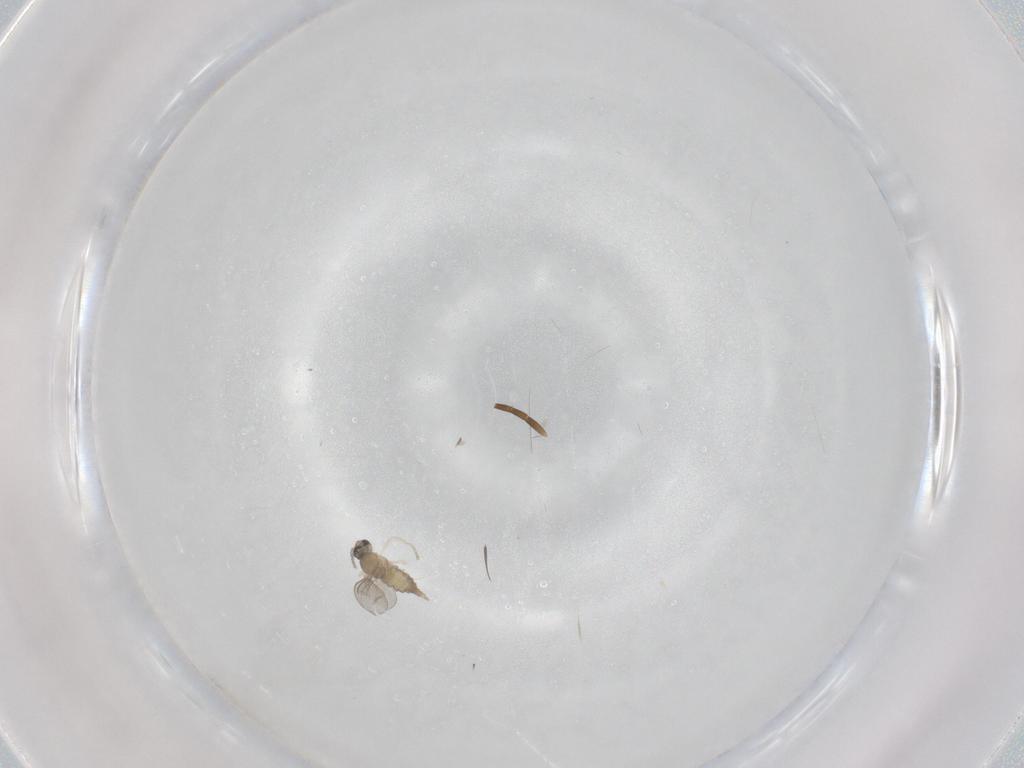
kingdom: Animalia
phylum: Arthropoda
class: Insecta
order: Diptera
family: Cecidomyiidae
